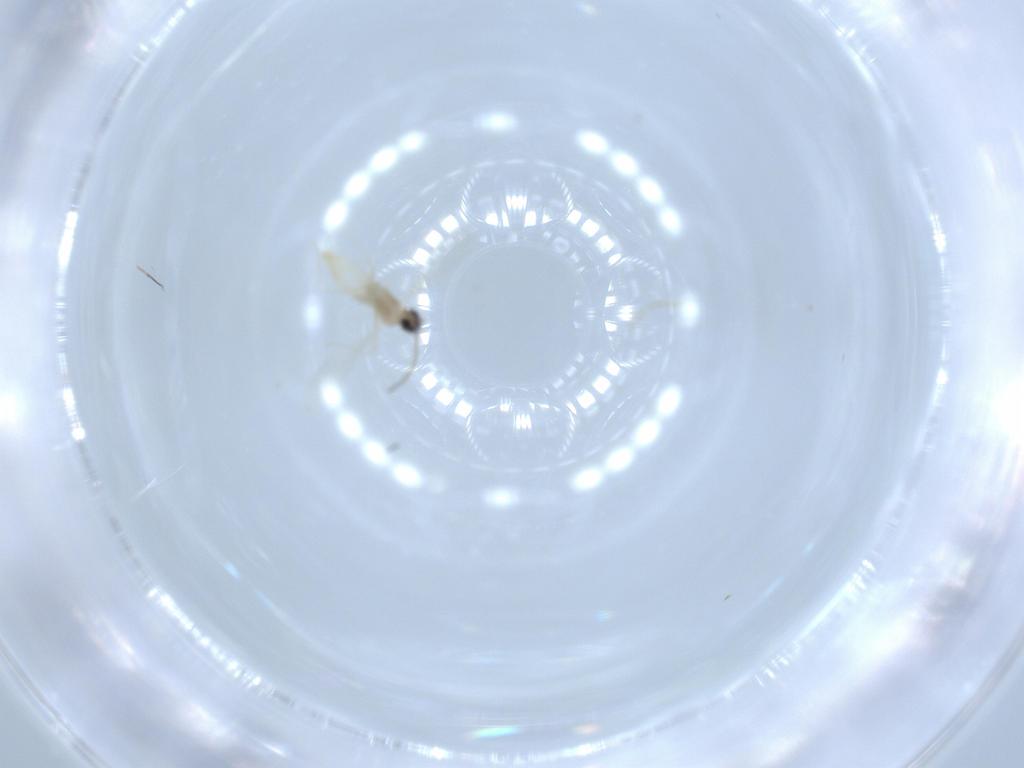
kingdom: Animalia
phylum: Arthropoda
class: Insecta
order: Diptera
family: Cecidomyiidae
